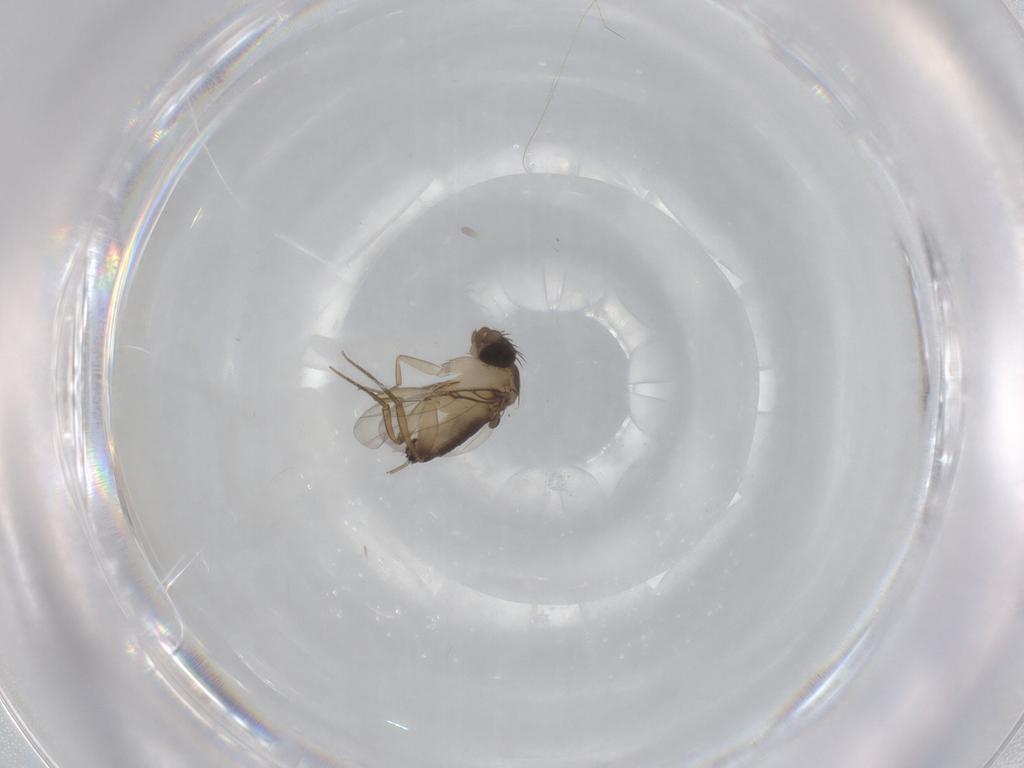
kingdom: Animalia
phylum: Arthropoda
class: Insecta
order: Diptera
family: Phoridae
